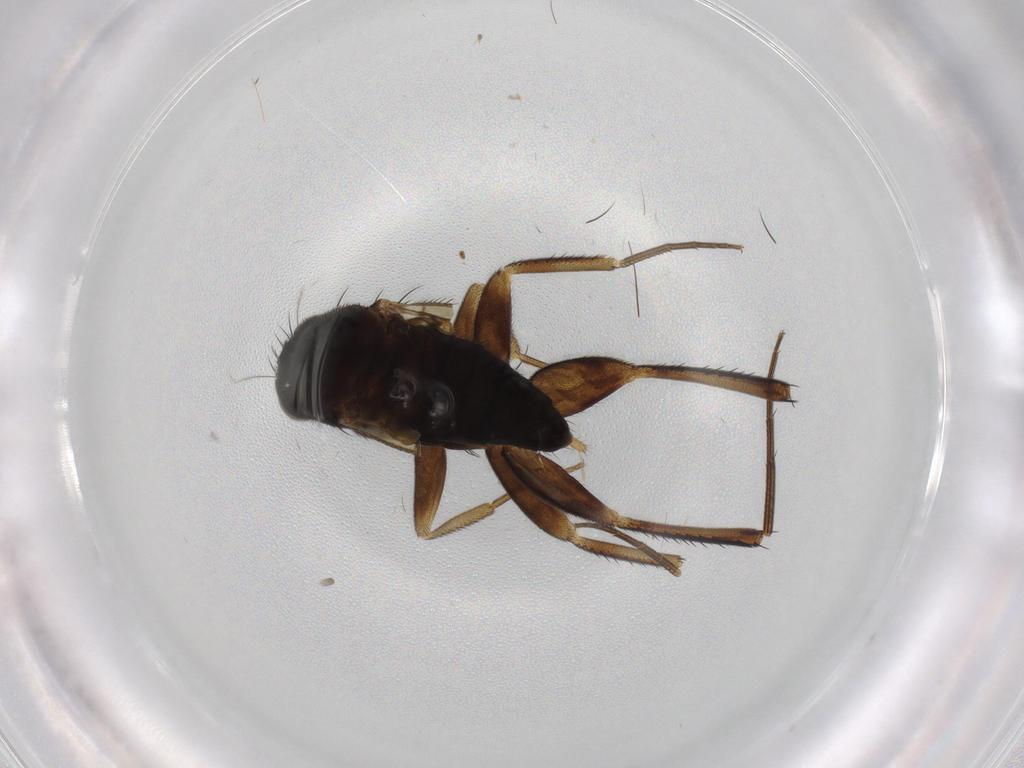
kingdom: Animalia
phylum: Arthropoda
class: Insecta
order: Diptera
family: Phoridae
